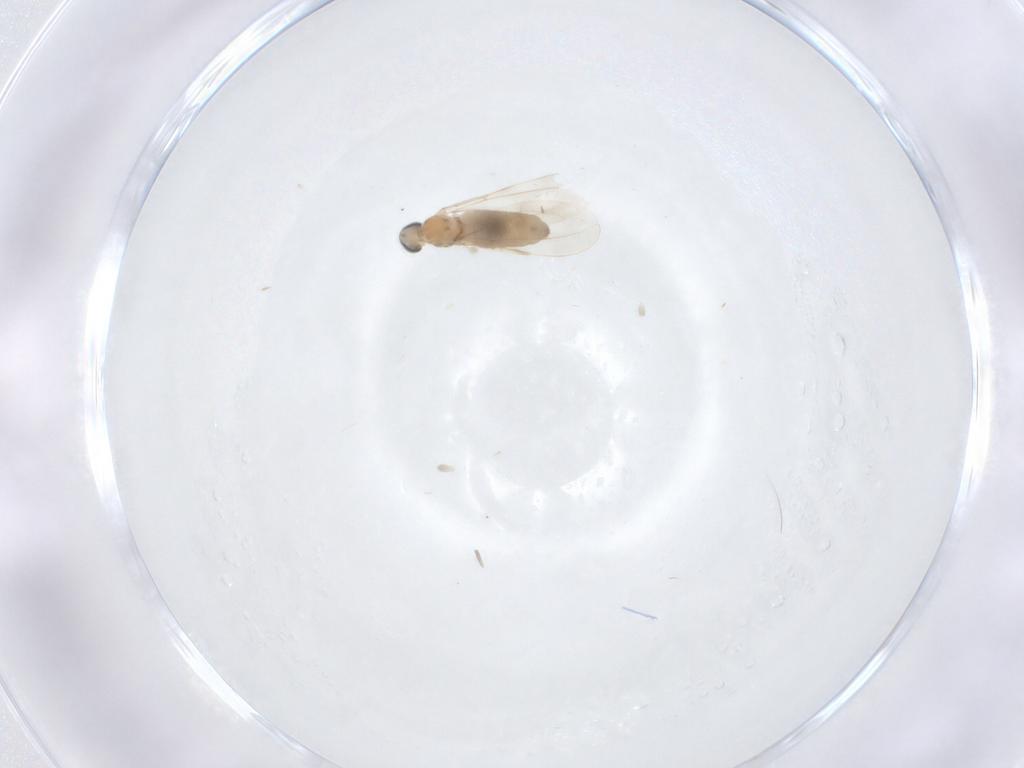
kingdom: Animalia
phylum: Arthropoda
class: Insecta
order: Diptera
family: Cecidomyiidae
